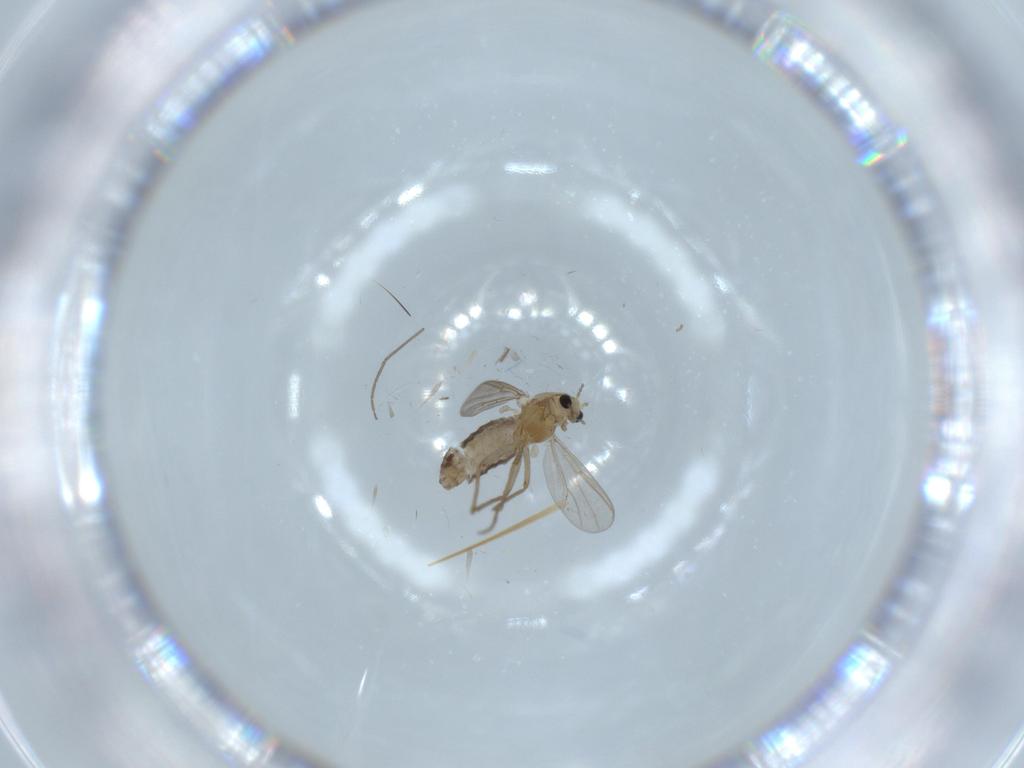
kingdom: Animalia
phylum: Arthropoda
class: Insecta
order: Diptera
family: Chironomidae
